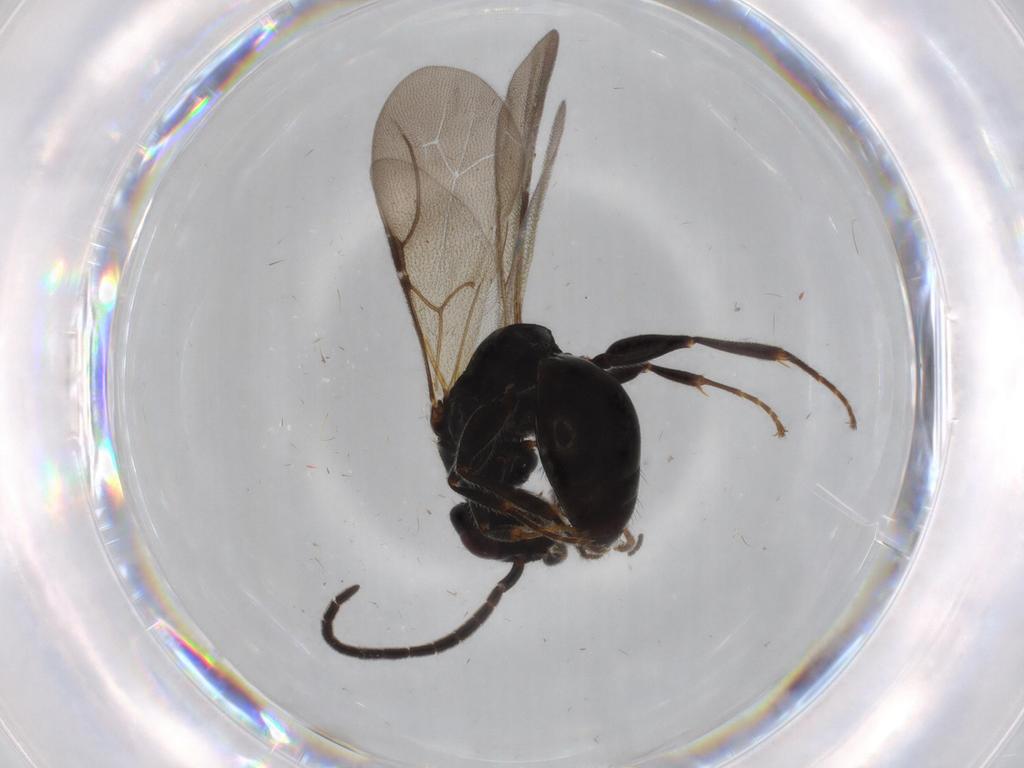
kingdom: Animalia
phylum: Arthropoda
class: Insecta
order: Hymenoptera
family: Bethylidae
